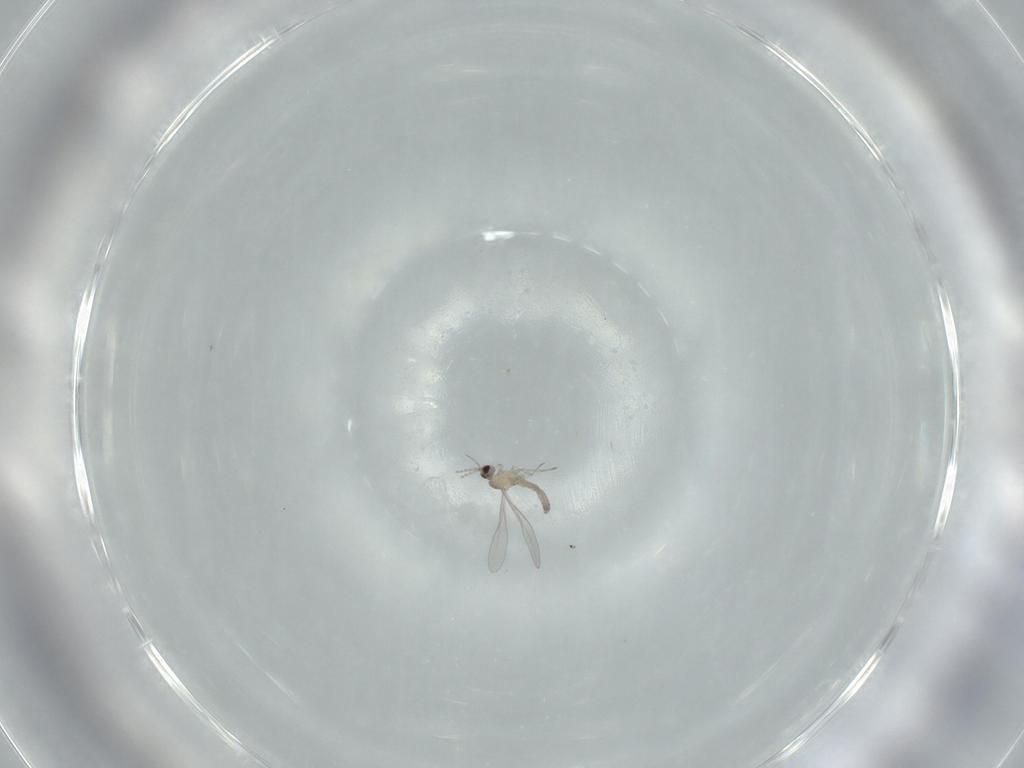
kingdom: Animalia
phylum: Arthropoda
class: Insecta
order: Diptera
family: Cecidomyiidae
